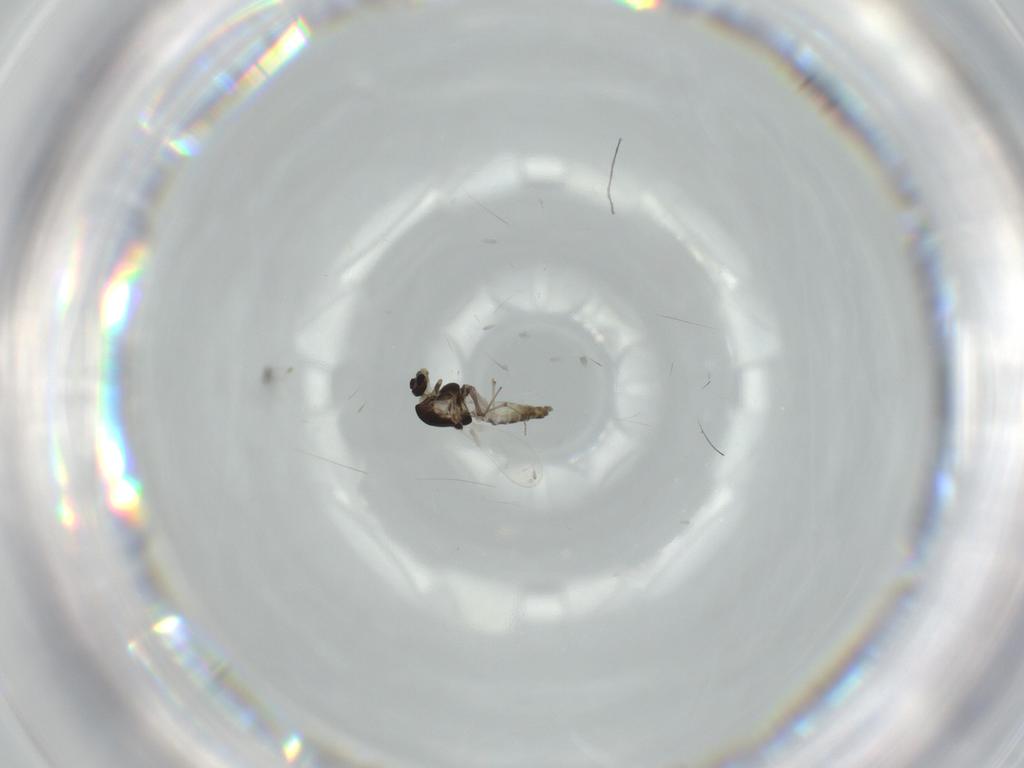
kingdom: Animalia
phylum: Arthropoda
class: Insecta
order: Diptera
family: Chironomidae
